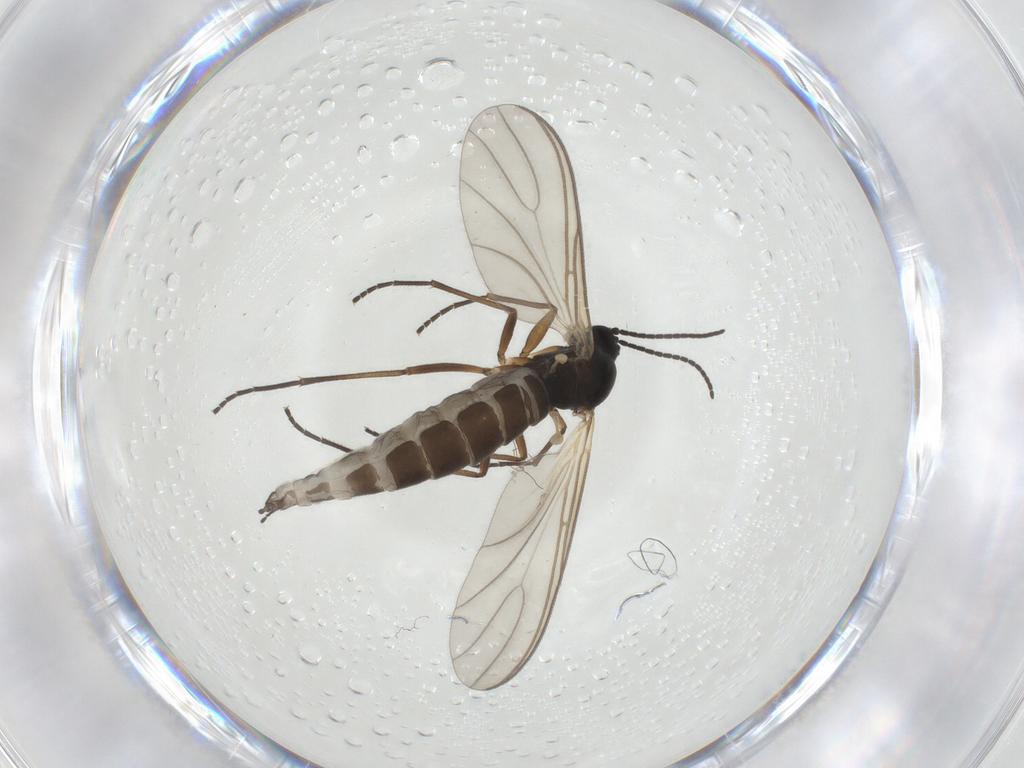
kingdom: Animalia
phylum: Arthropoda
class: Insecta
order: Diptera
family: Sciaridae
